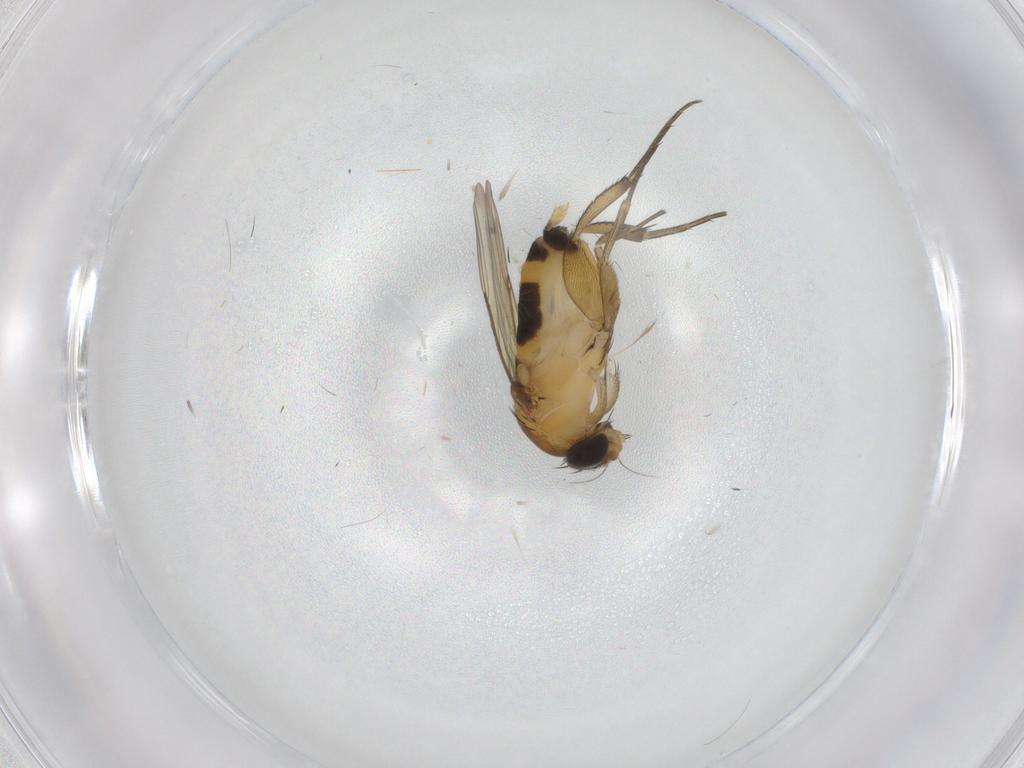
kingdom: Animalia
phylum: Arthropoda
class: Insecta
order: Diptera
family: Phoridae
